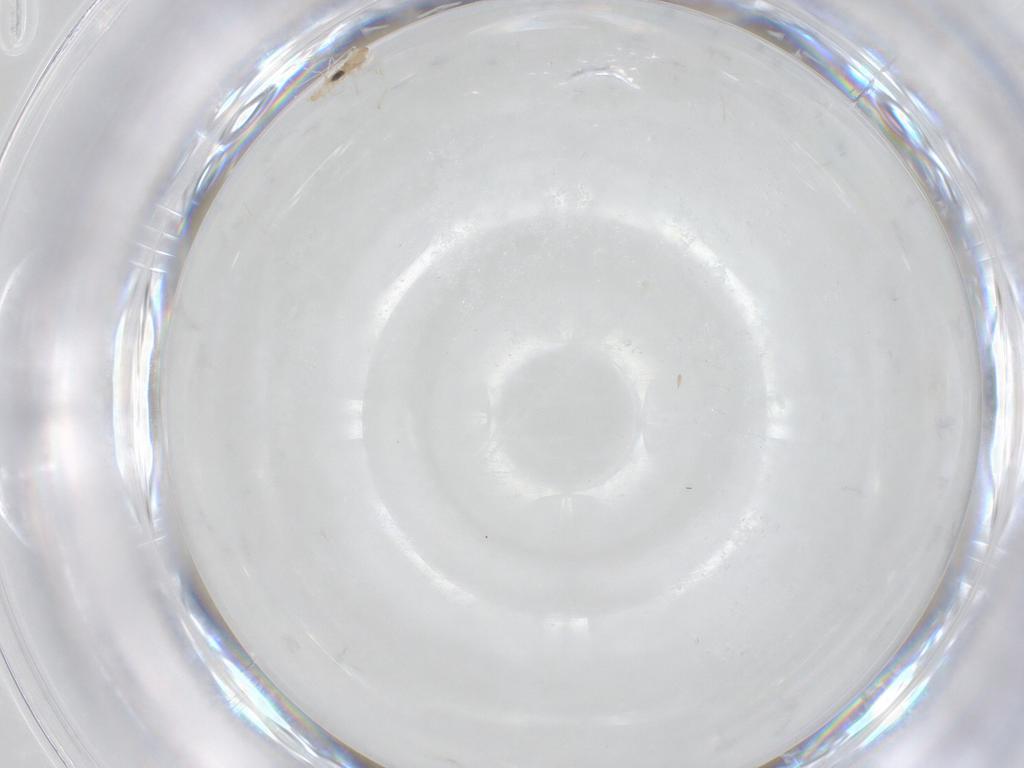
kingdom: Animalia
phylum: Arthropoda
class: Insecta
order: Diptera
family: Cecidomyiidae
